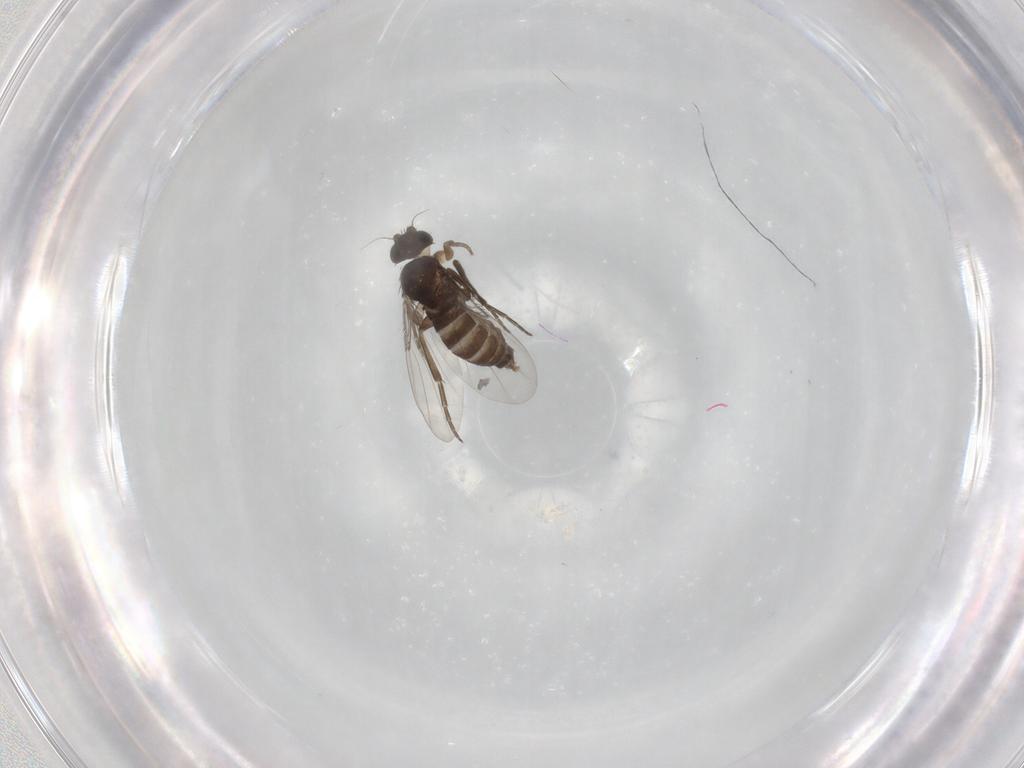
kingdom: Animalia
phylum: Arthropoda
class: Insecta
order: Diptera
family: Phoridae
